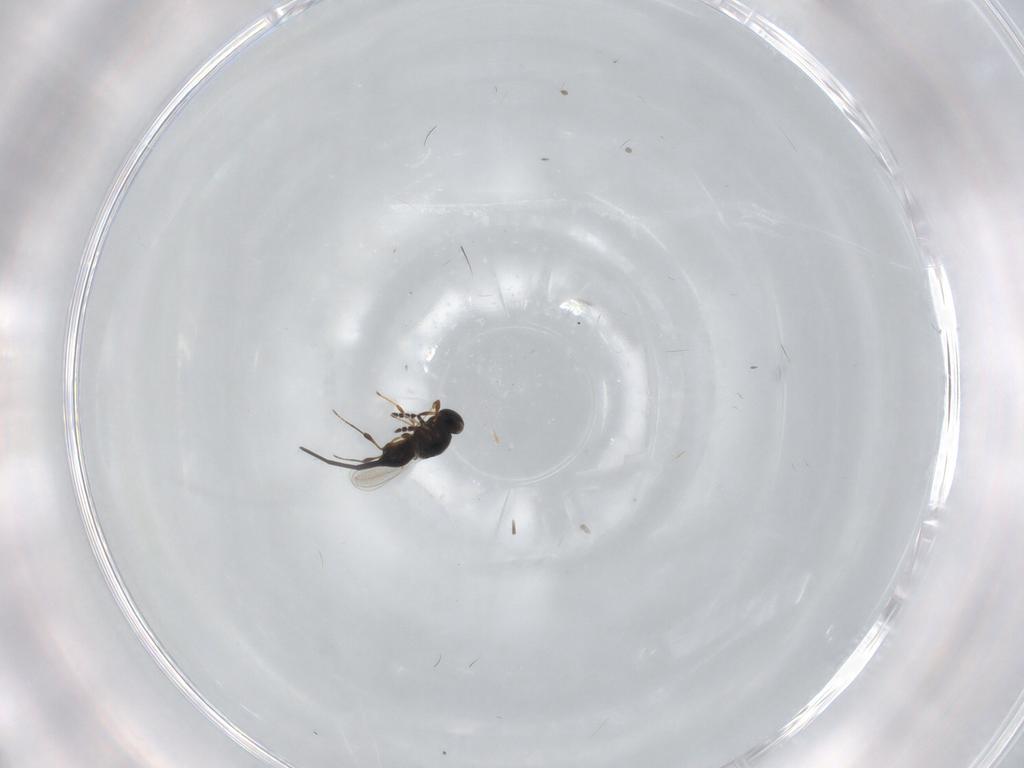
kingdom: Animalia
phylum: Arthropoda
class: Insecta
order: Hymenoptera
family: Platygastridae
